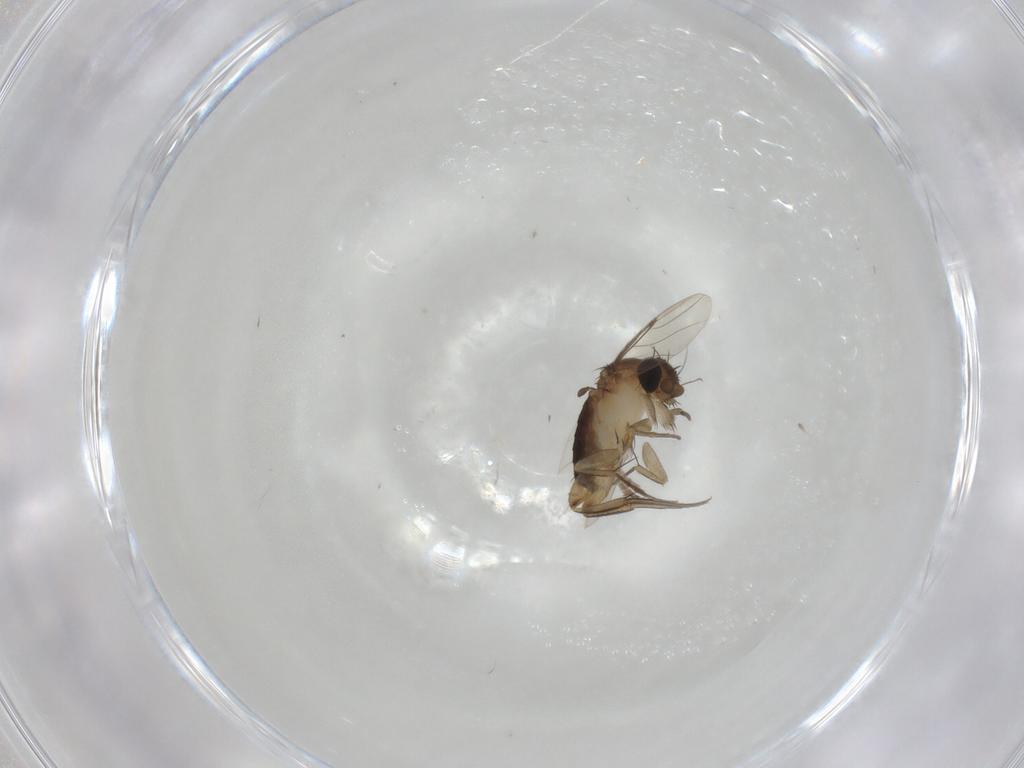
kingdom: Animalia
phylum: Arthropoda
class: Insecta
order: Diptera
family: Phoridae
